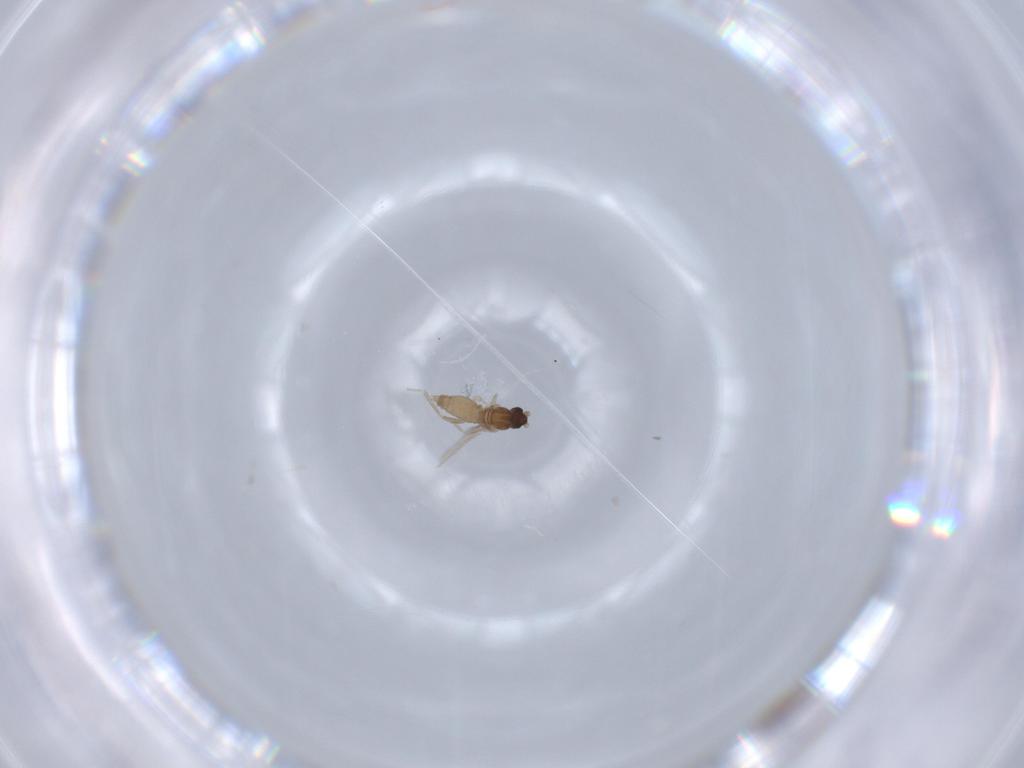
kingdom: Animalia
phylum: Arthropoda
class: Insecta
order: Diptera
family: Cecidomyiidae
